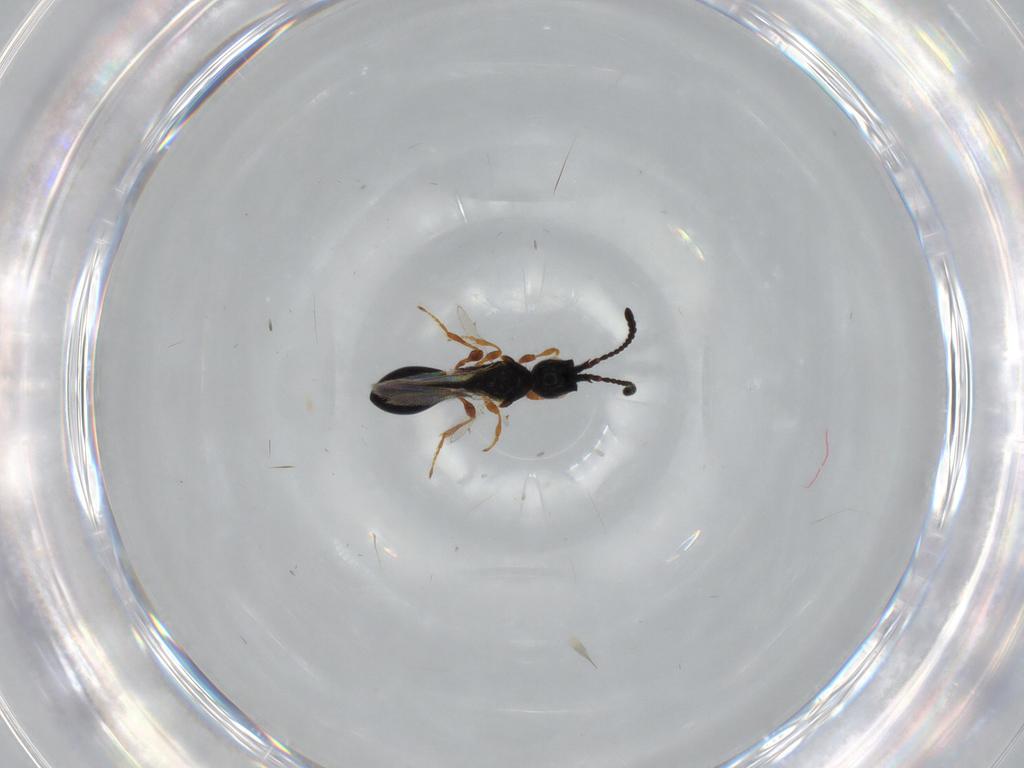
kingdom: Animalia
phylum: Arthropoda
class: Insecta
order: Hymenoptera
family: Diapriidae
